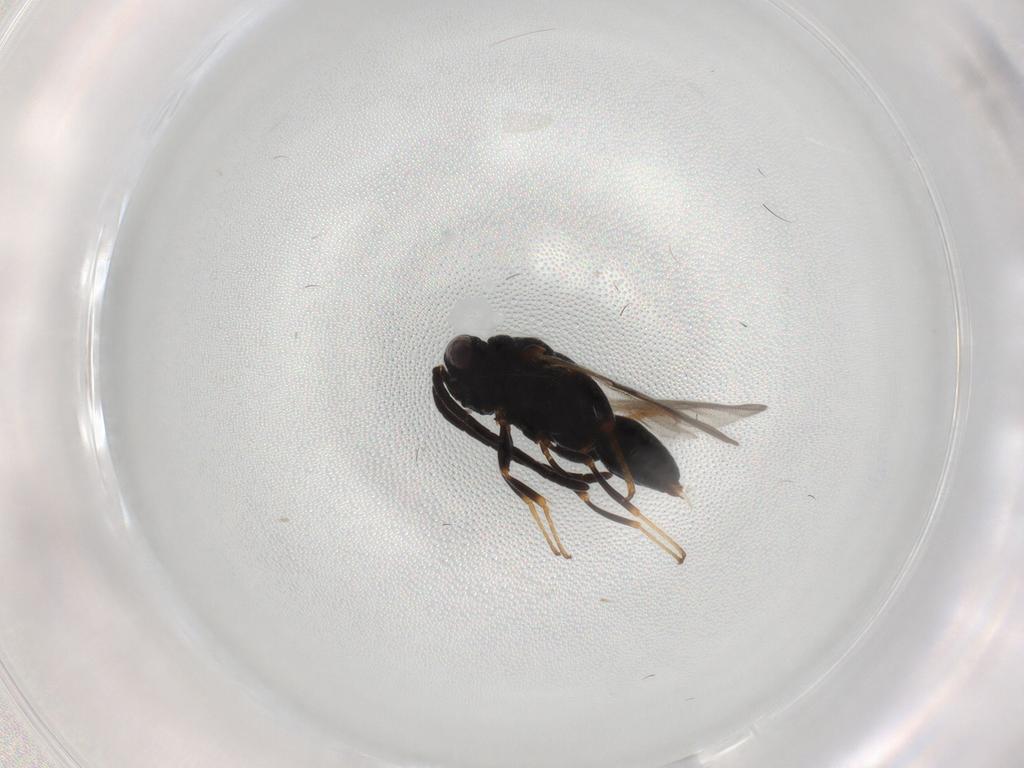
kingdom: Animalia
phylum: Arthropoda
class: Insecta
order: Hymenoptera
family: Chalcididae
